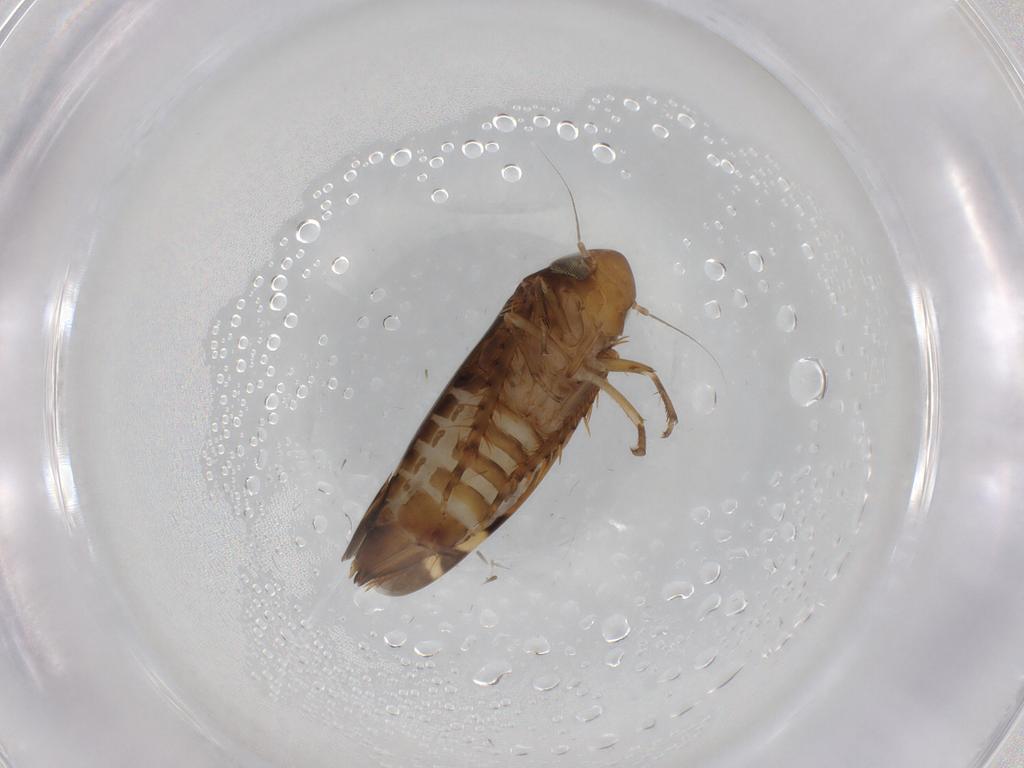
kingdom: Animalia
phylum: Arthropoda
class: Insecta
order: Hemiptera
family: Cicadellidae
